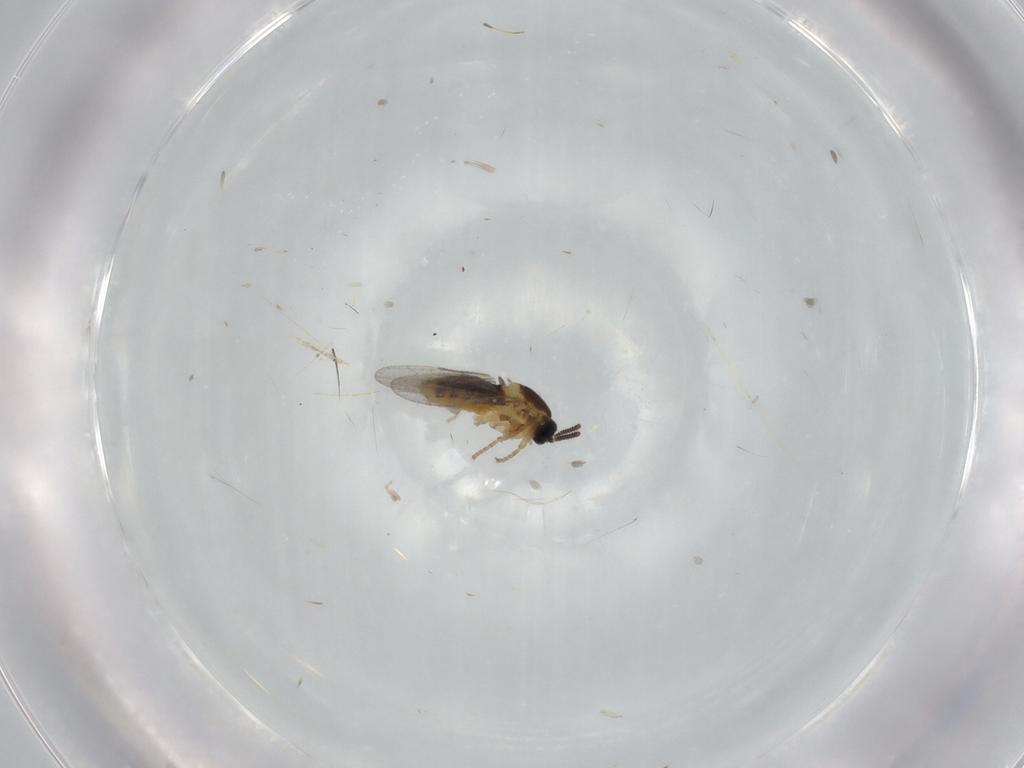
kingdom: Animalia
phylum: Arthropoda
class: Insecta
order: Diptera
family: Scatopsidae
